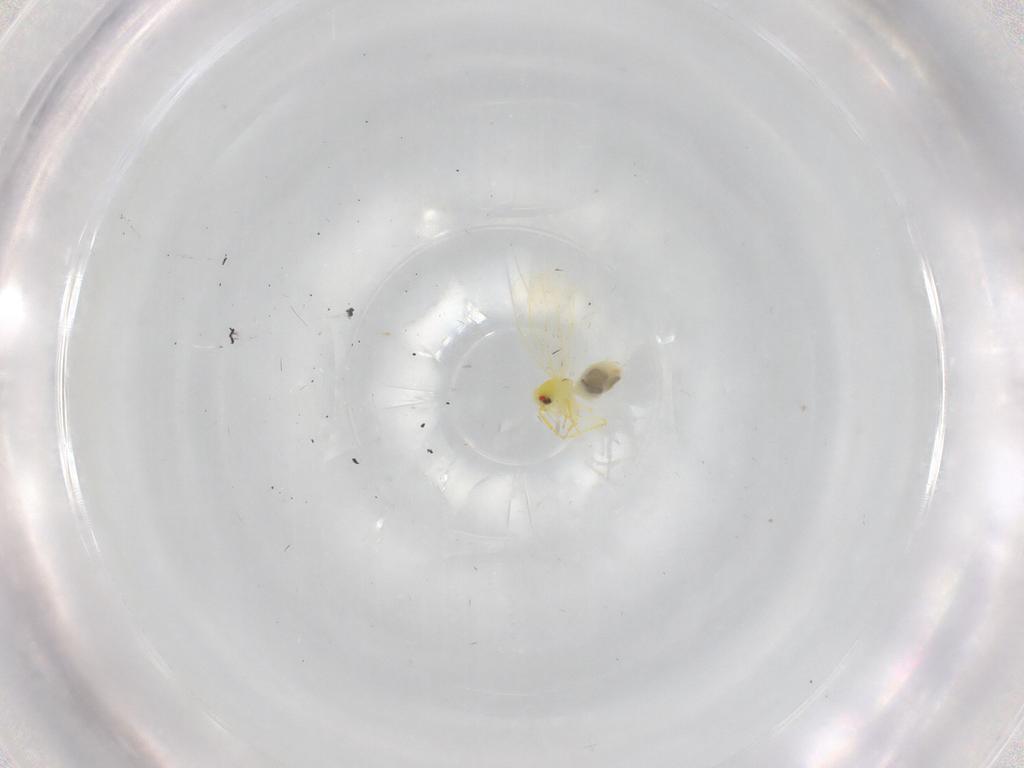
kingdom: Animalia
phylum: Arthropoda
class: Insecta
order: Hemiptera
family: Aleyrodidae
